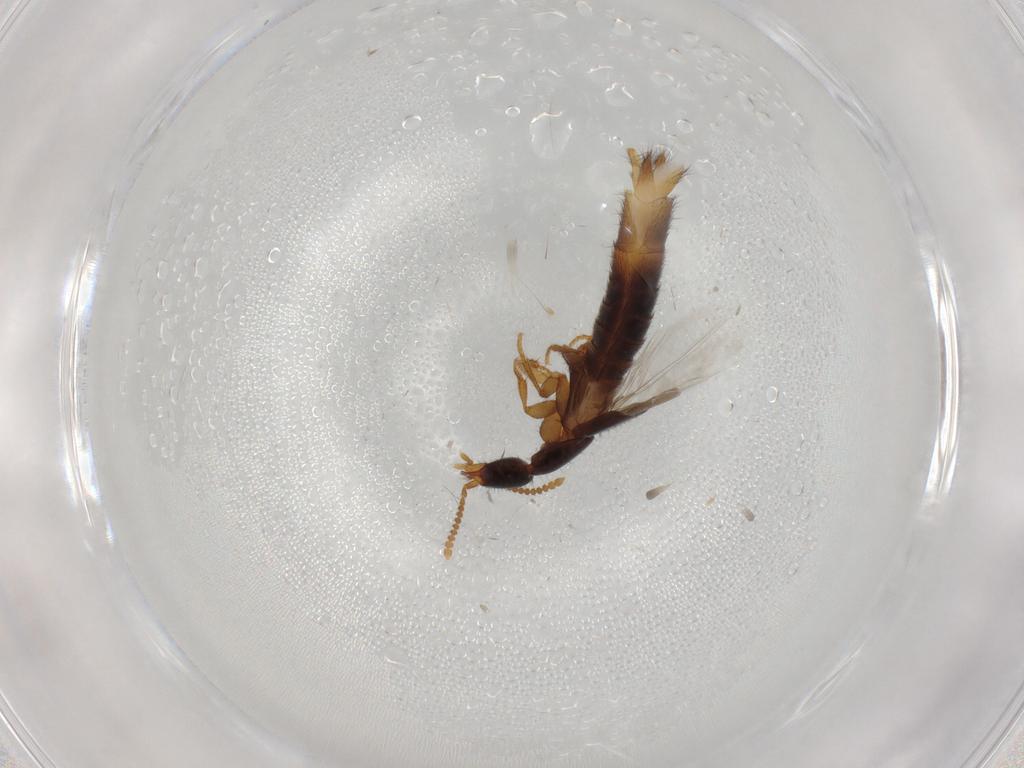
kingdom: Animalia
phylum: Arthropoda
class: Insecta
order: Coleoptera
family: Staphylinidae
